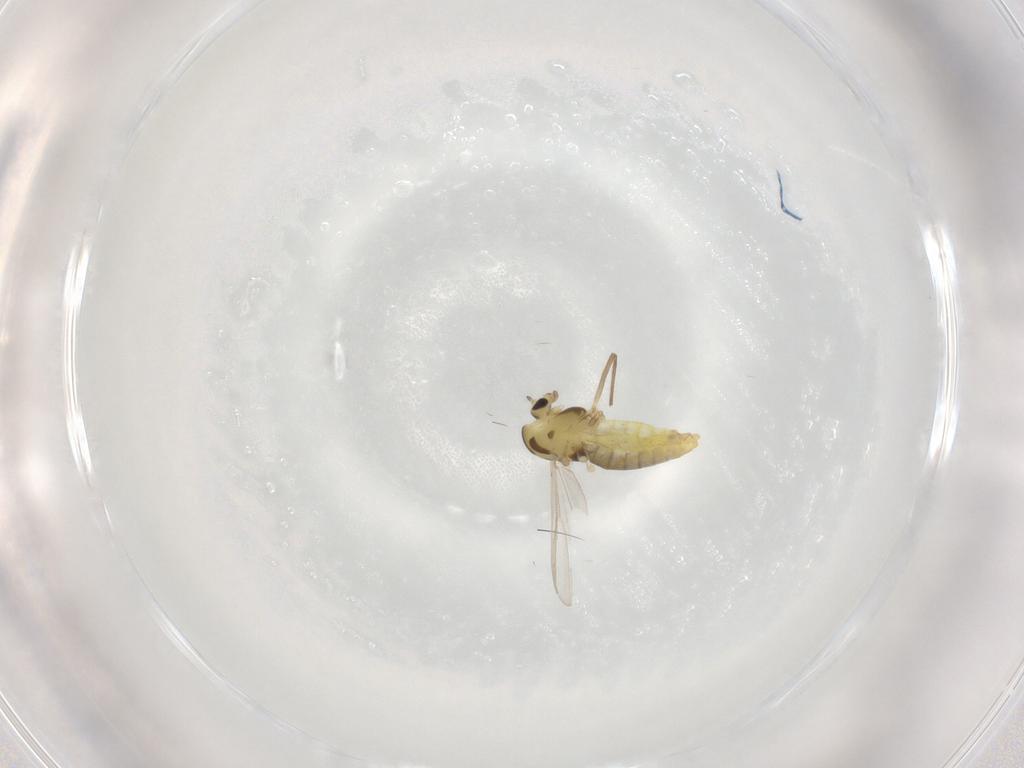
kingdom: Animalia
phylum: Arthropoda
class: Insecta
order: Diptera
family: Chironomidae
